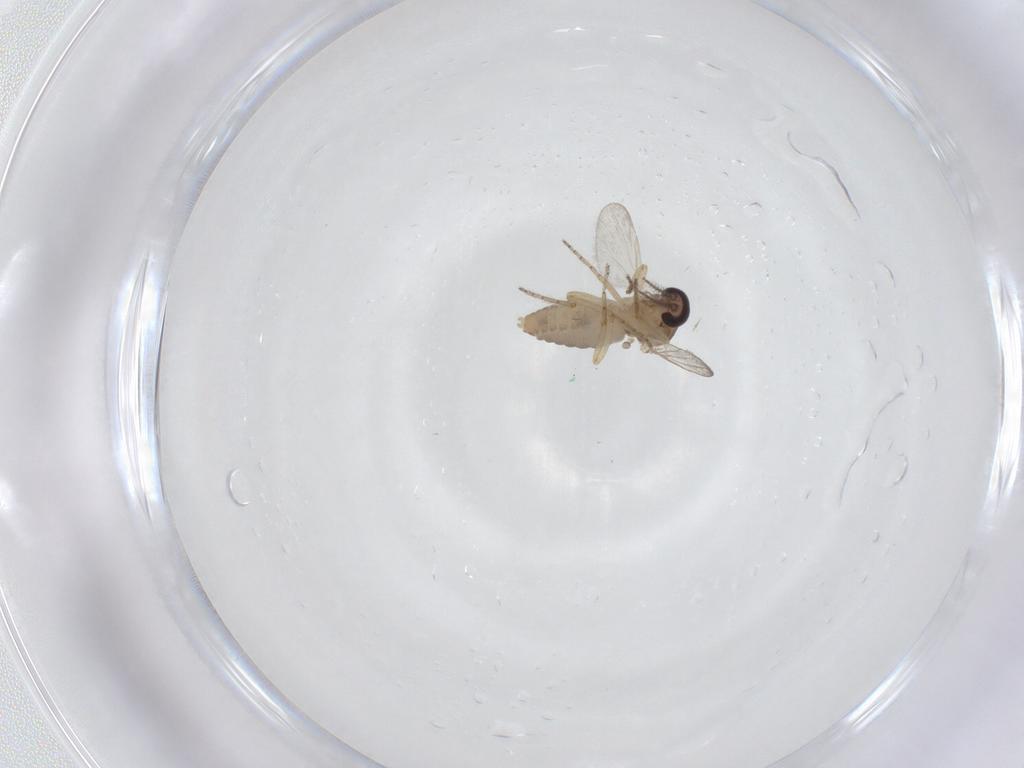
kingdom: Animalia
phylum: Arthropoda
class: Insecta
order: Diptera
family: Ceratopogonidae
